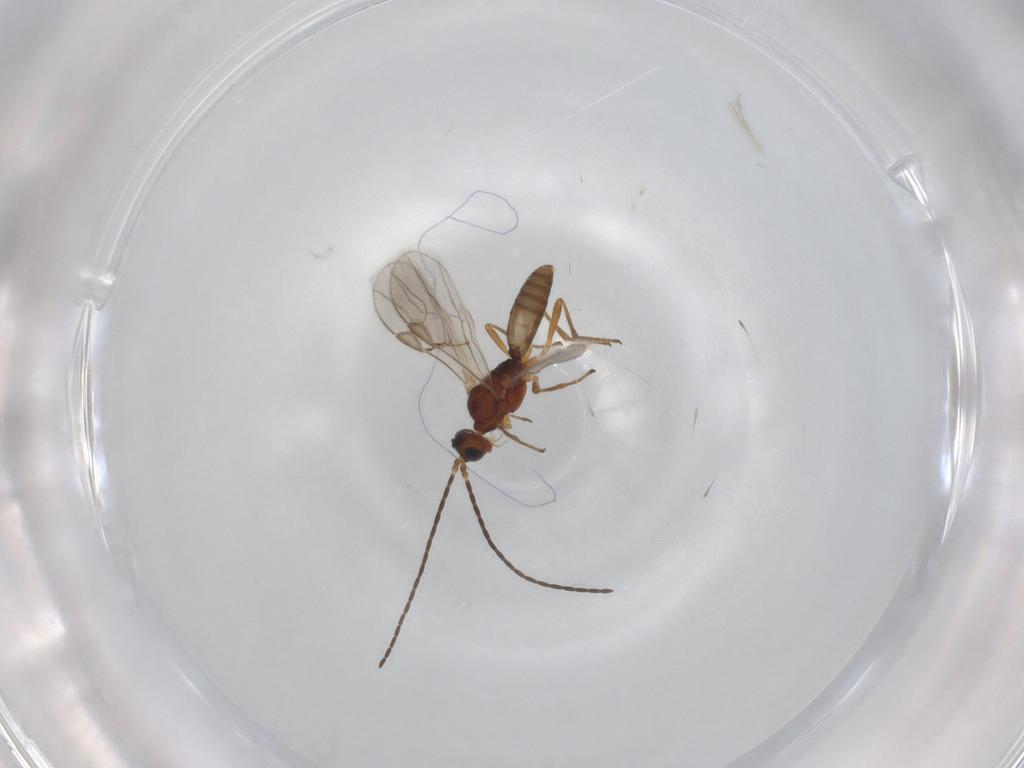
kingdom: Animalia
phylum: Arthropoda
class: Insecta
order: Hymenoptera
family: Braconidae
